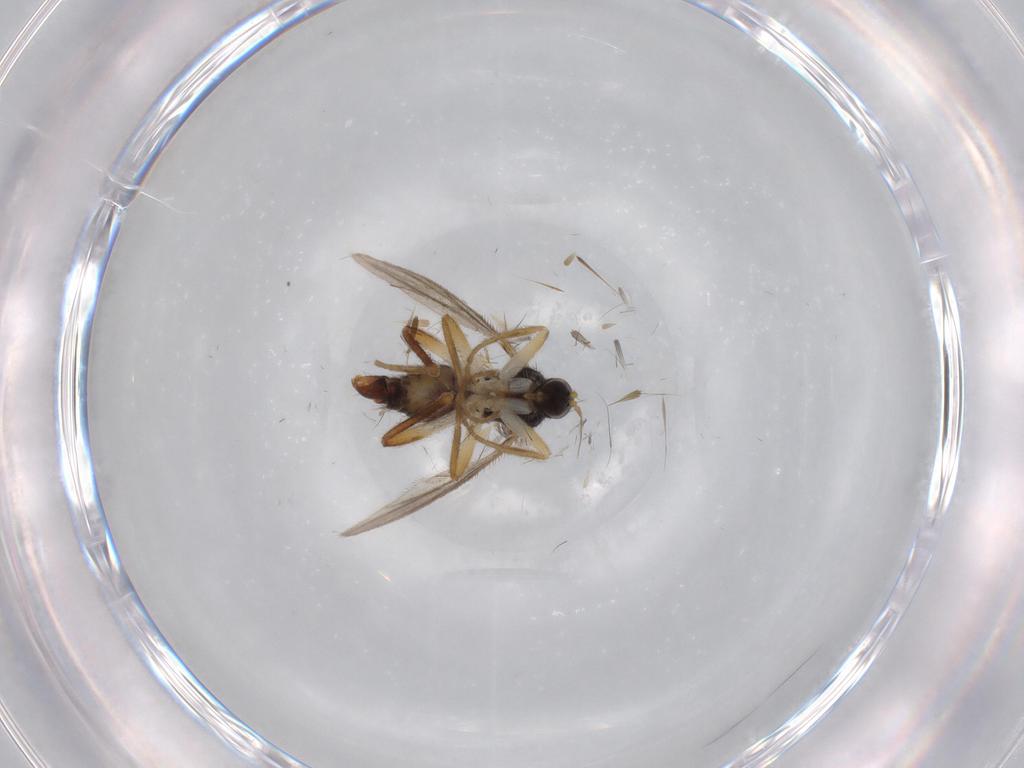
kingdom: Animalia
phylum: Arthropoda
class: Insecta
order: Diptera
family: Hybotidae
